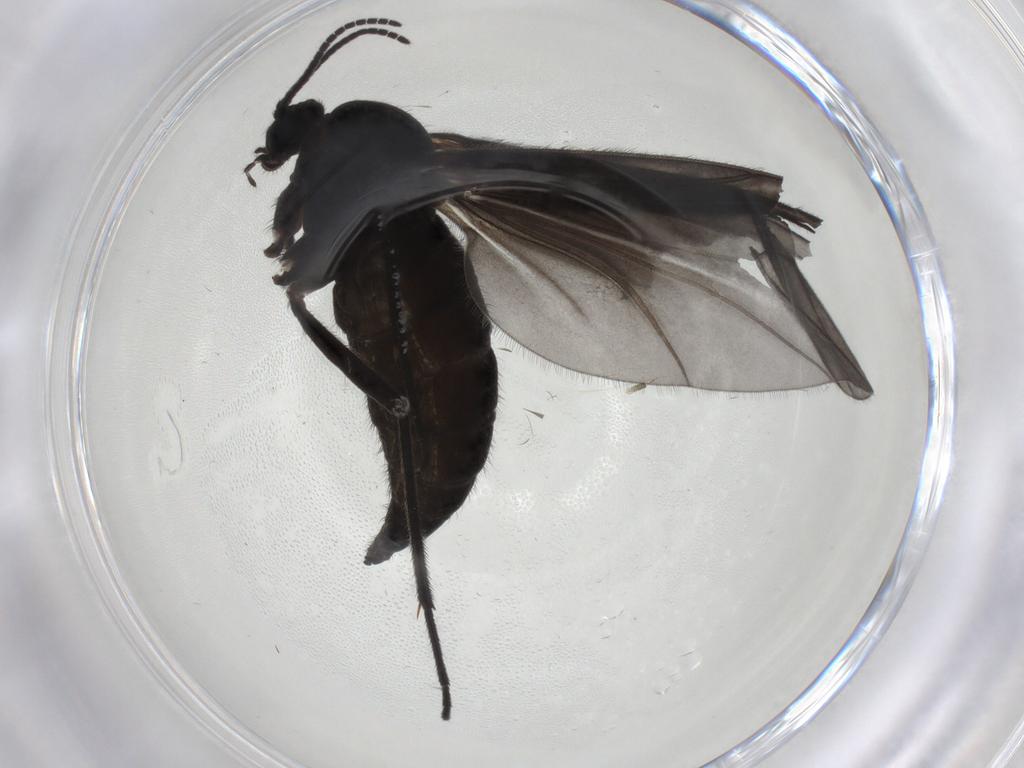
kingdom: Animalia
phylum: Arthropoda
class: Insecta
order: Diptera
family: Sciaridae
